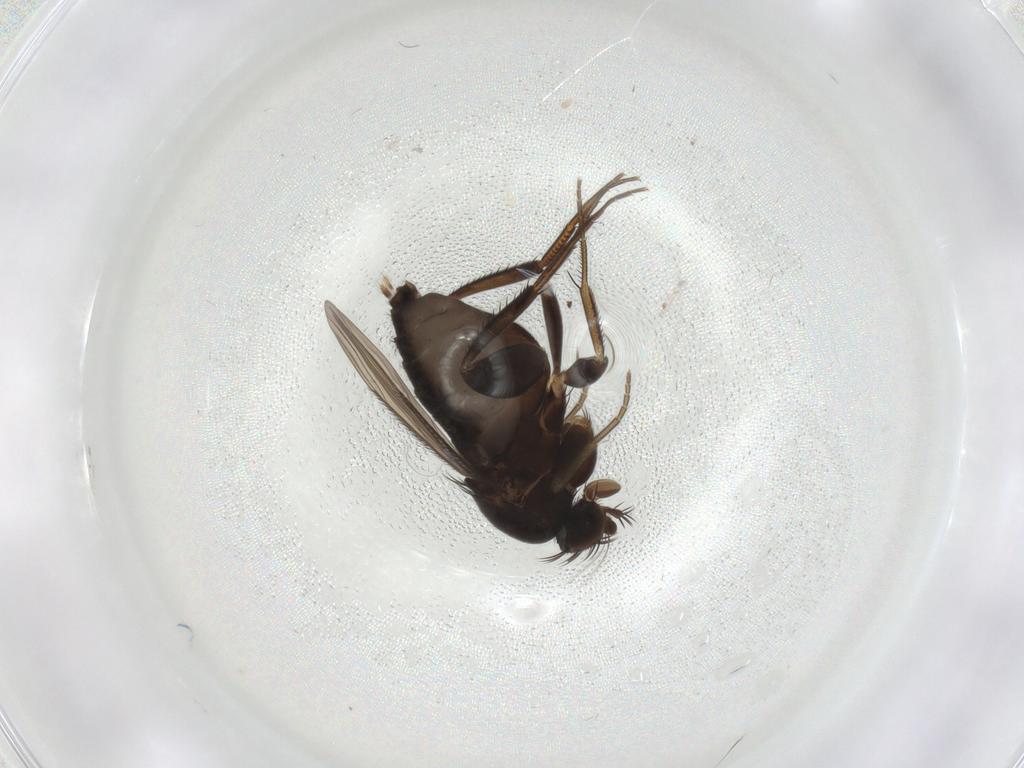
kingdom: Animalia
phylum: Arthropoda
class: Insecta
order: Diptera
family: Phoridae
